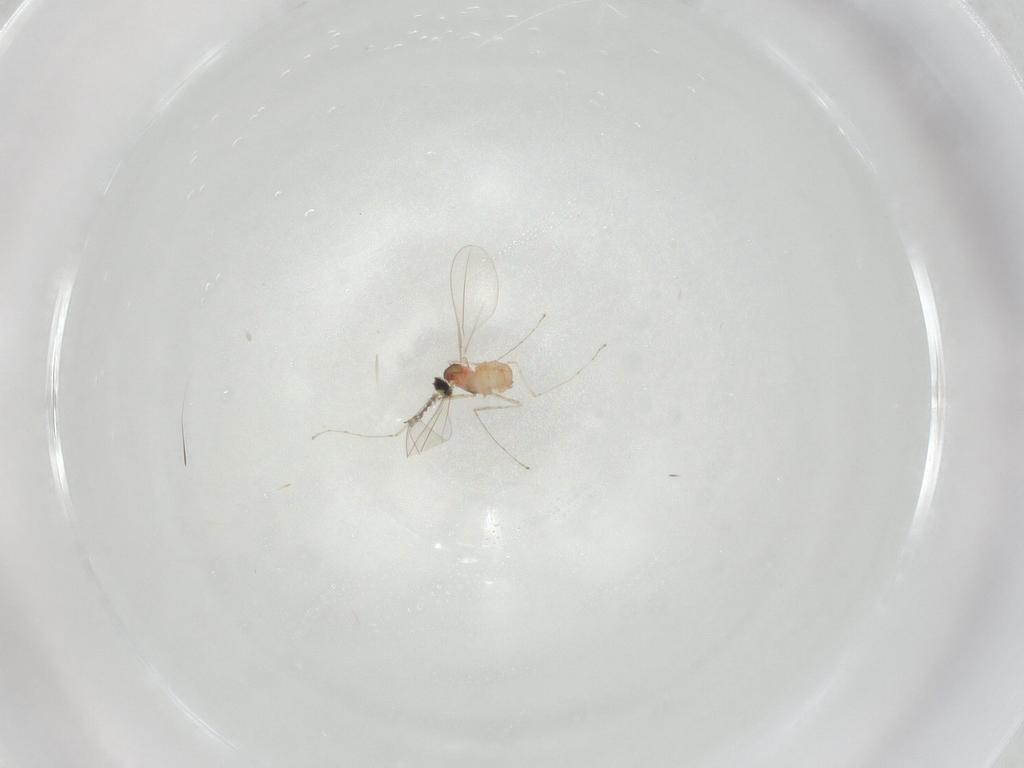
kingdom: Animalia
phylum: Arthropoda
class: Insecta
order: Diptera
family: Cecidomyiidae
